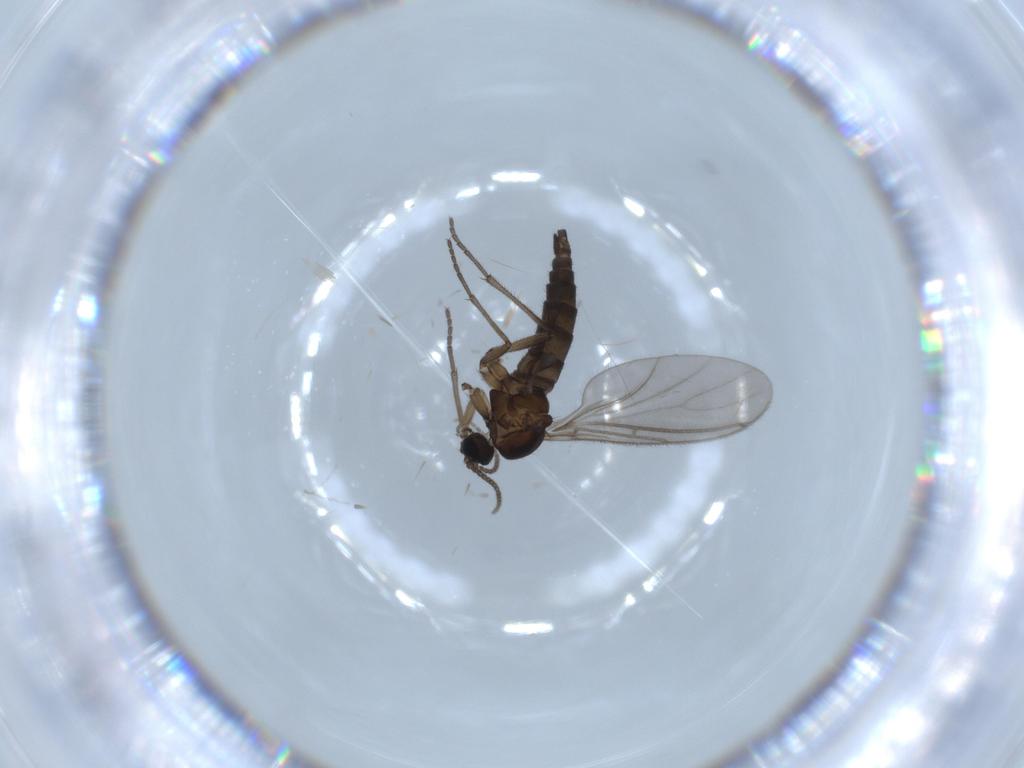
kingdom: Animalia
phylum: Arthropoda
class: Insecta
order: Diptera
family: Sciaridae
